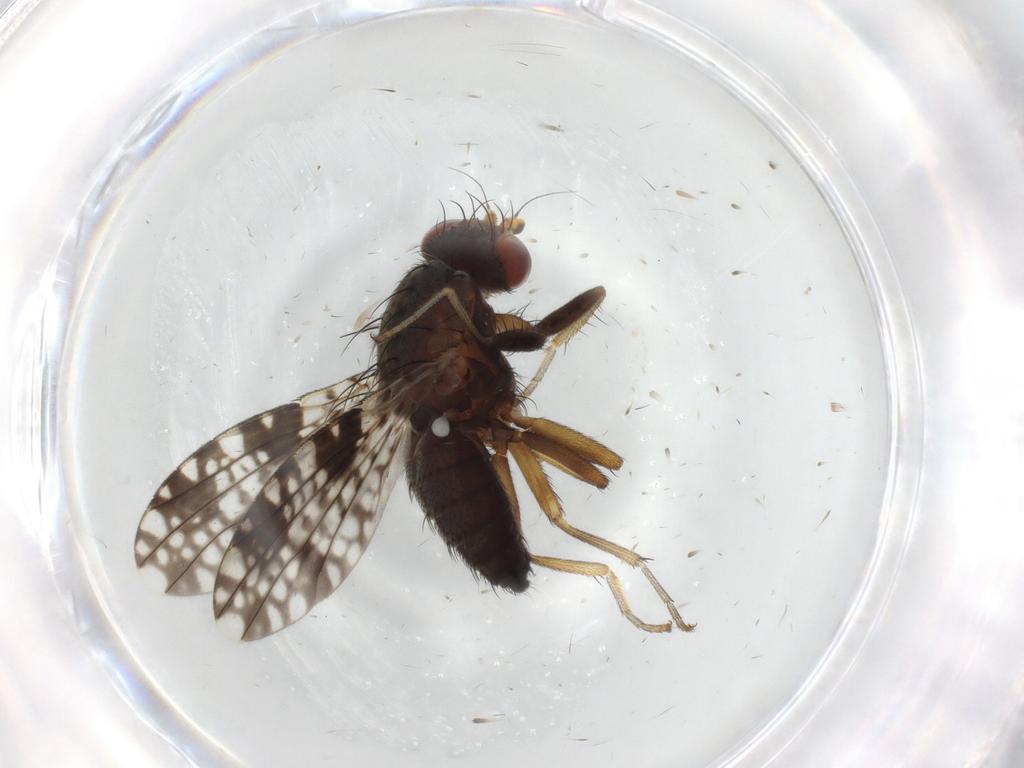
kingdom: Animalia
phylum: Arthropoda
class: Insecta
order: Diptera
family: Tephritidae
